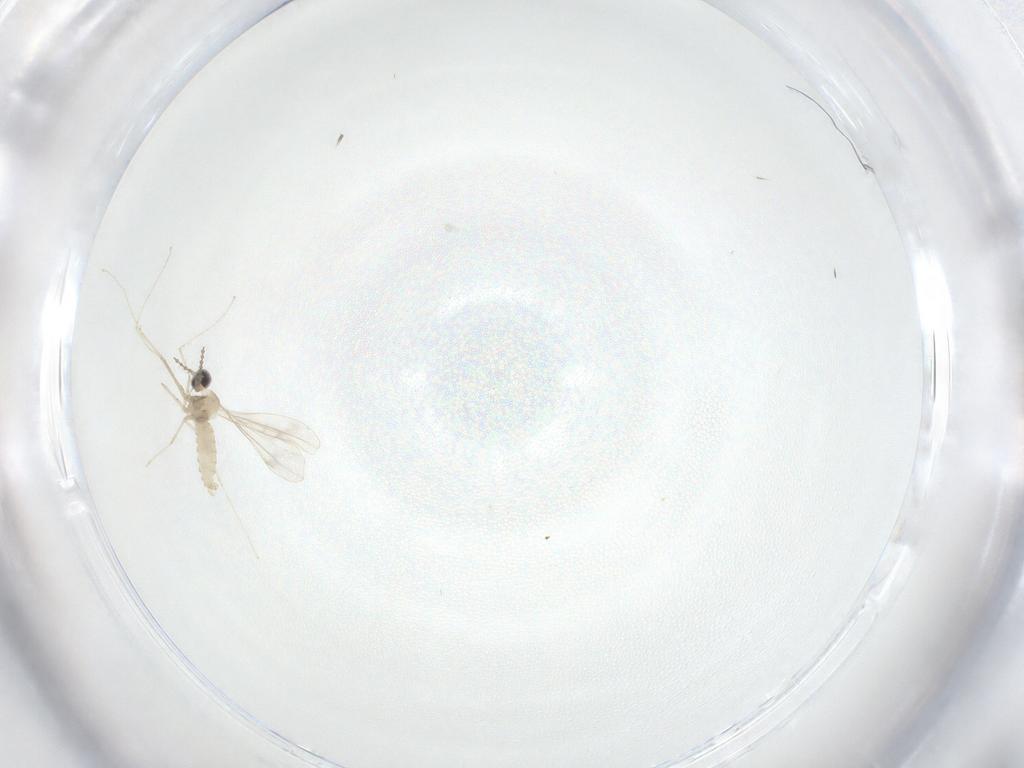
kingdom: Animalia
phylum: Arthropoda
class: Insecta
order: Diptera
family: Chironomidae
